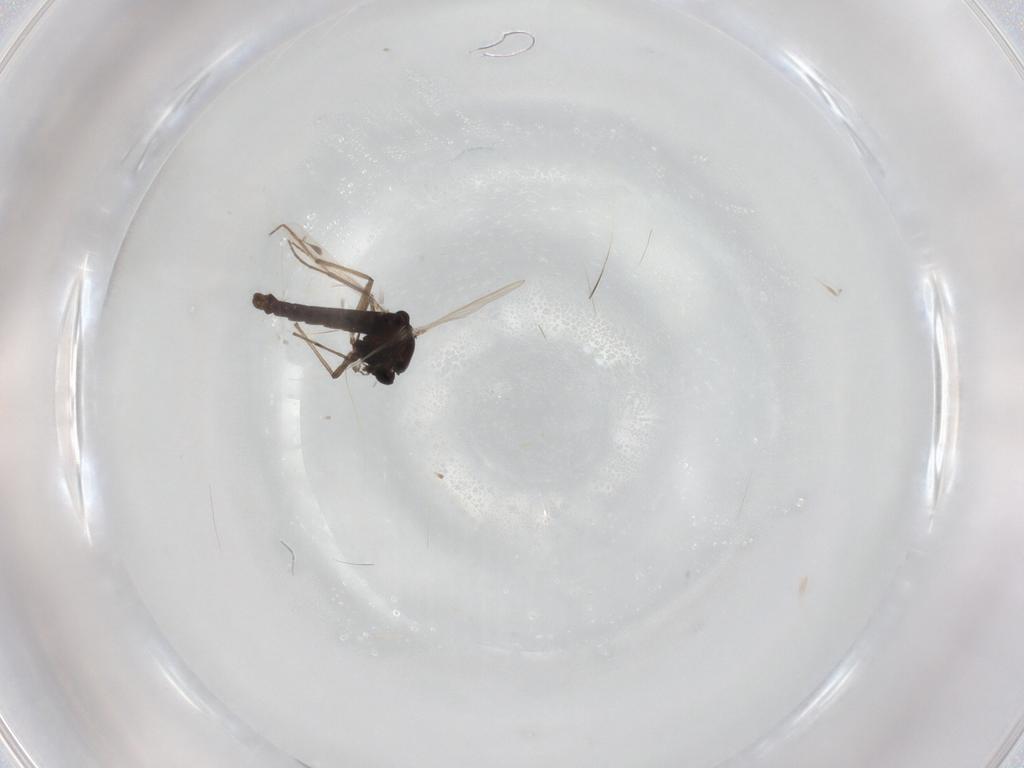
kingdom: Animalia
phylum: Arthropoda
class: Insecta
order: Diptera
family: Chironomidae
